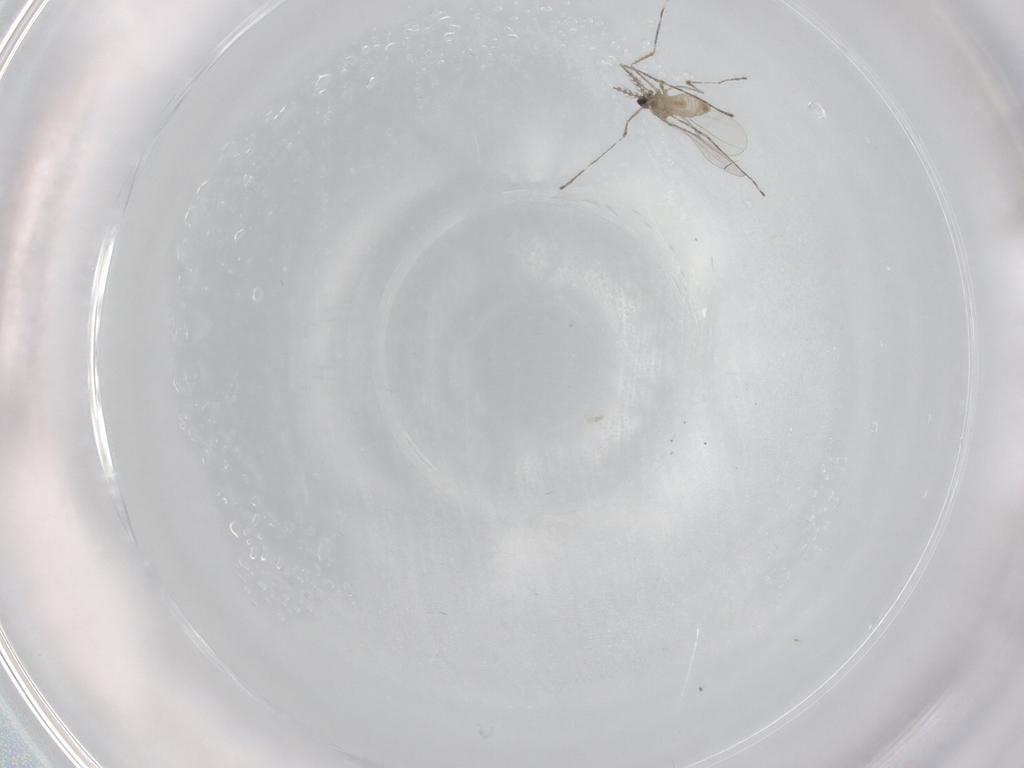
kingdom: Animalia
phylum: Arthropoda
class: Insecta
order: Diptera
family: Cecidomyiidae
